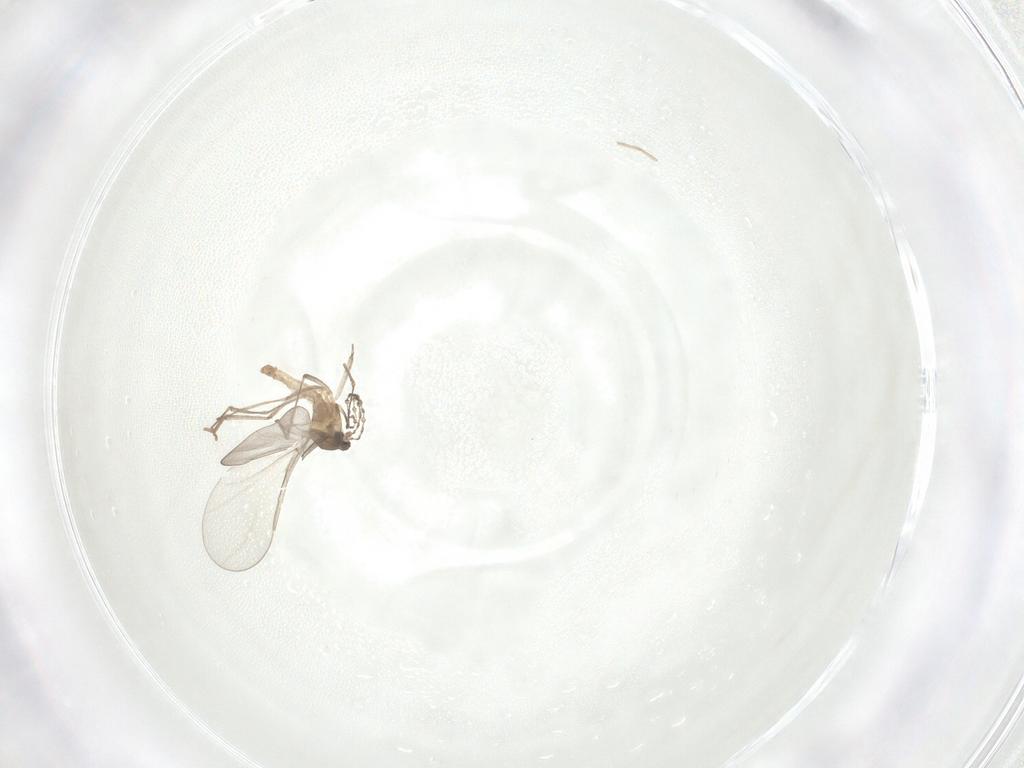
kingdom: Animalia
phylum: Arthropoda
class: Insecta
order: Diptera
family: Cecidomyiidae
